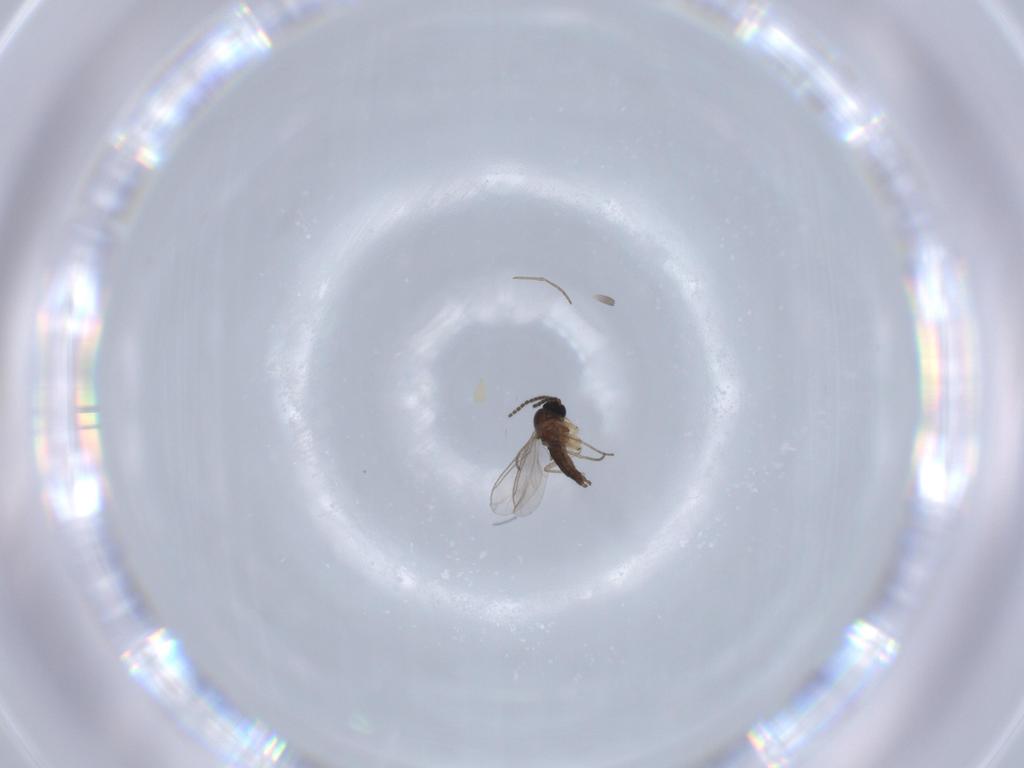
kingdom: Animalia
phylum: Arthropoda
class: Insecta
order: Diptera
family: Sciaridae
